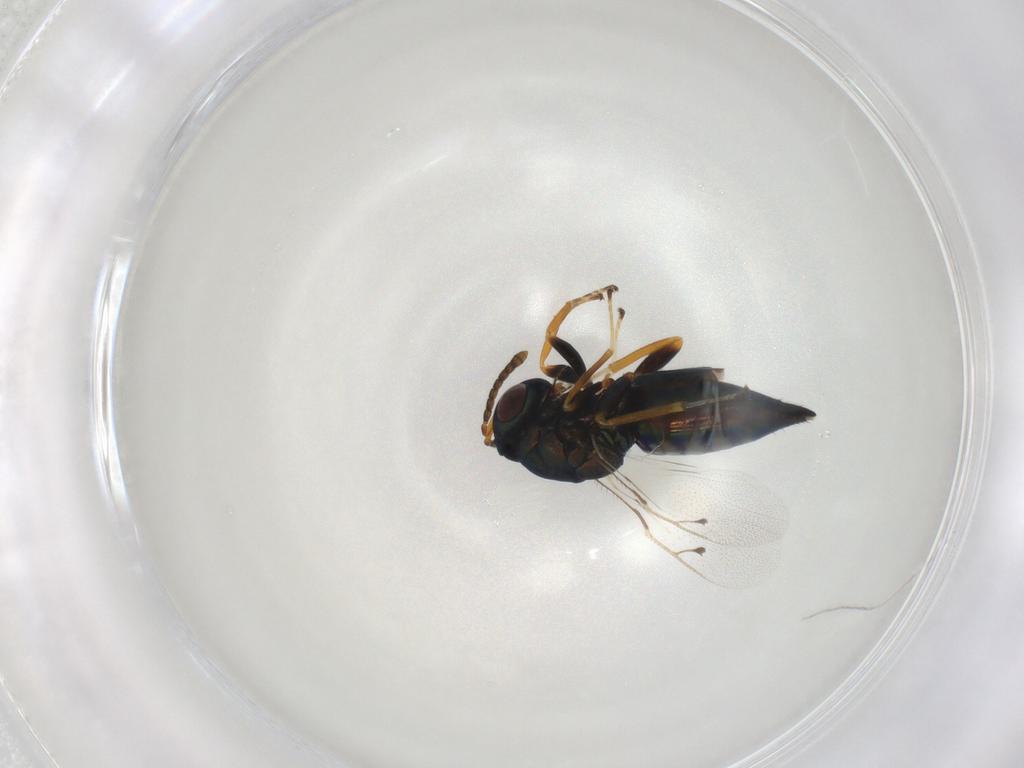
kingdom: Animalia
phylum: Arthropoda
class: Insecta
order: Hymenoptera
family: Pteromalidae
